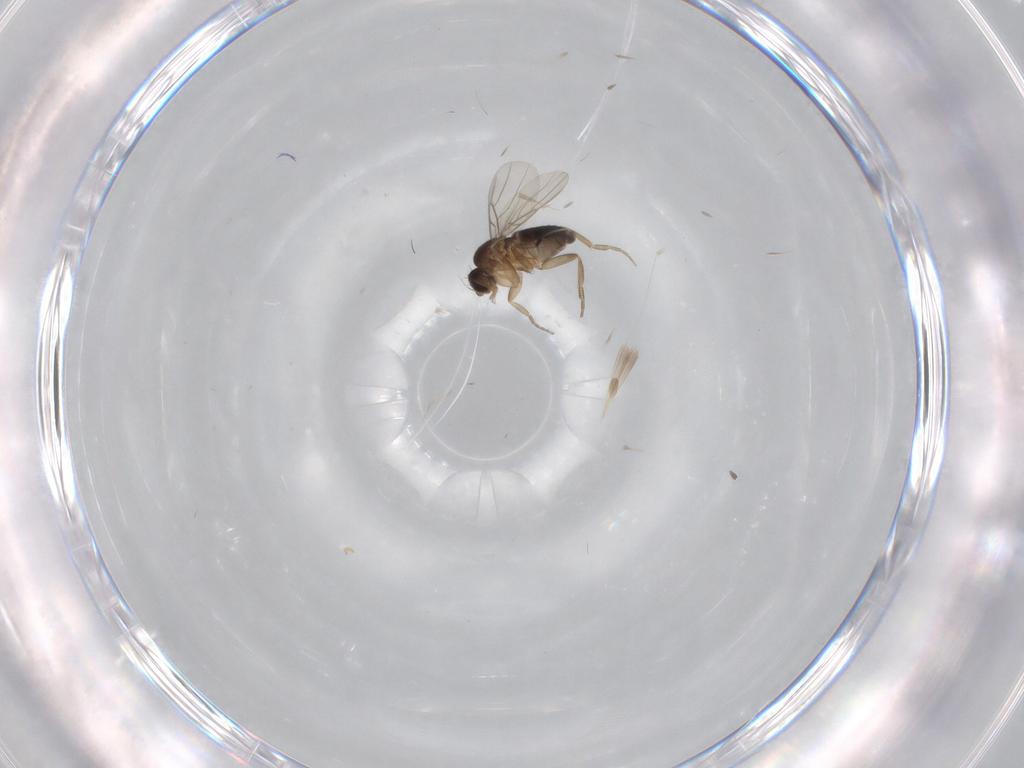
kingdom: Animalia
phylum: Arthropoda
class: Insecta
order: Diptera
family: Phoridae
